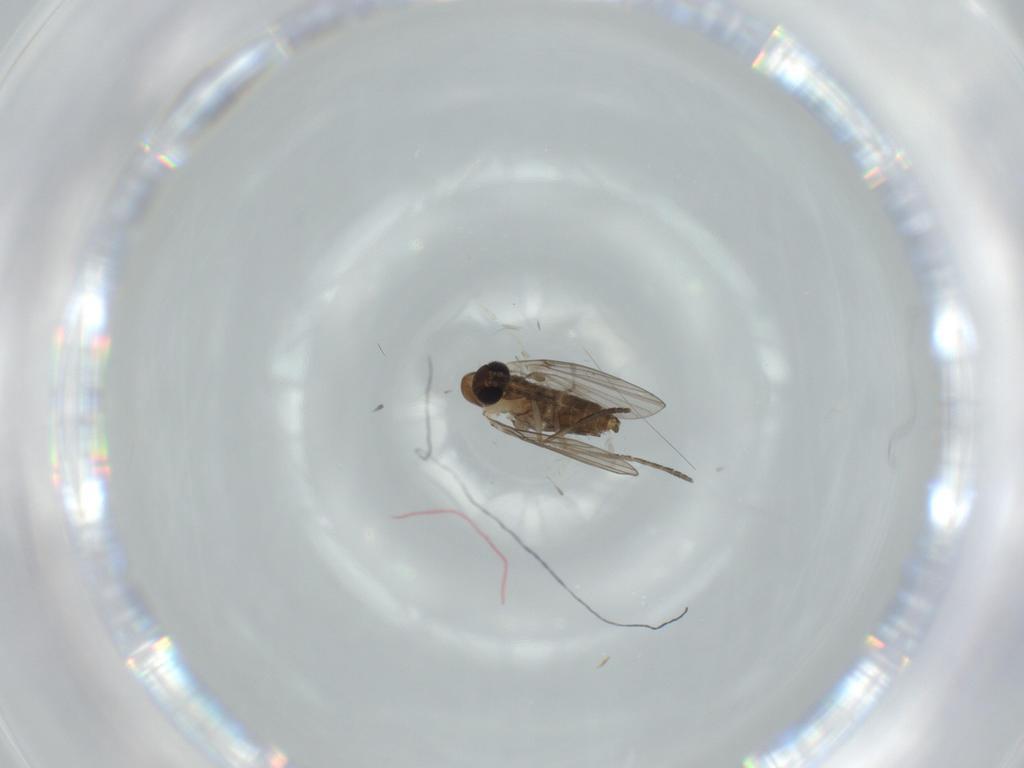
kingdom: Animalia
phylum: Arthropoda
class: Insecta
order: Diptera
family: Psychodidae
